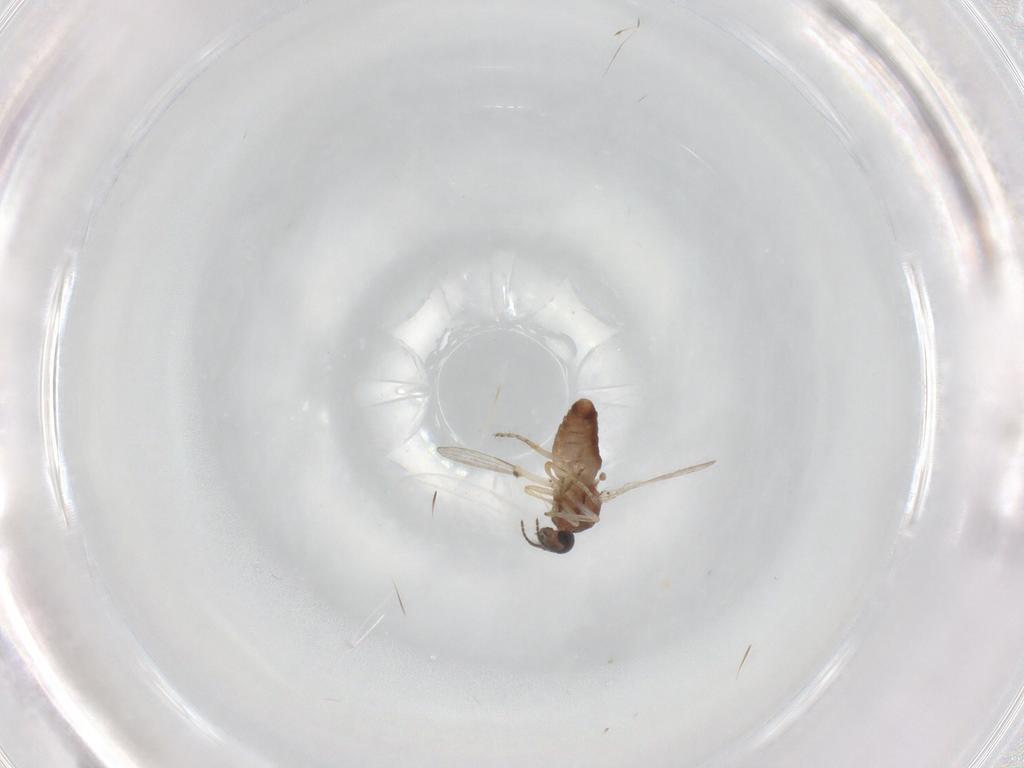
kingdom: Animalia
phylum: Arthropoda
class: Insecta
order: Diptera
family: Ceratopogonidae
